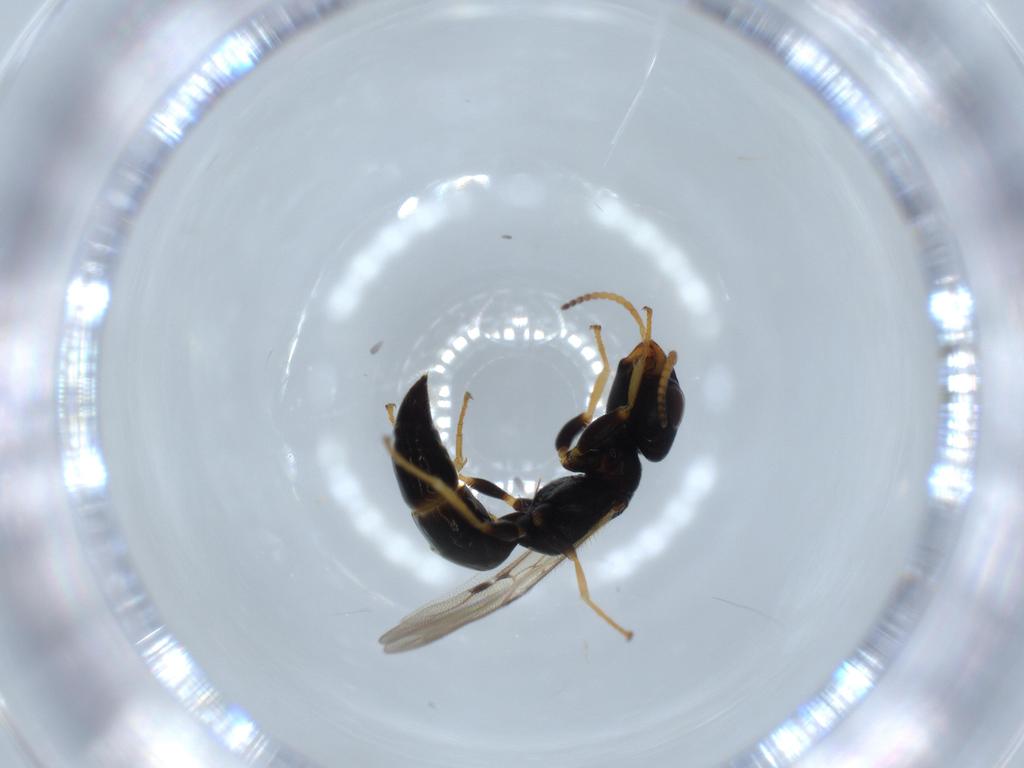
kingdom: Animalia
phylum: Arthropoda
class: Insecta
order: Hymenoptera
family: Bethylidae
